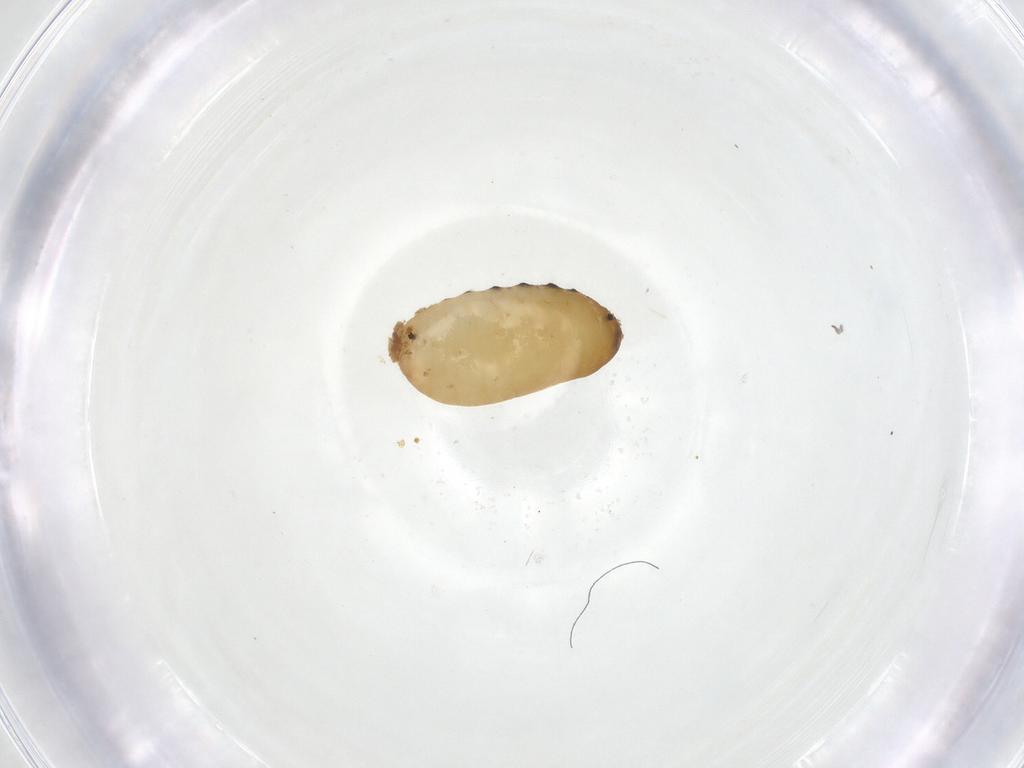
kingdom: Animalia
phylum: Arthropoda
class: Insecta
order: Diptera
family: Fergusoninidae
